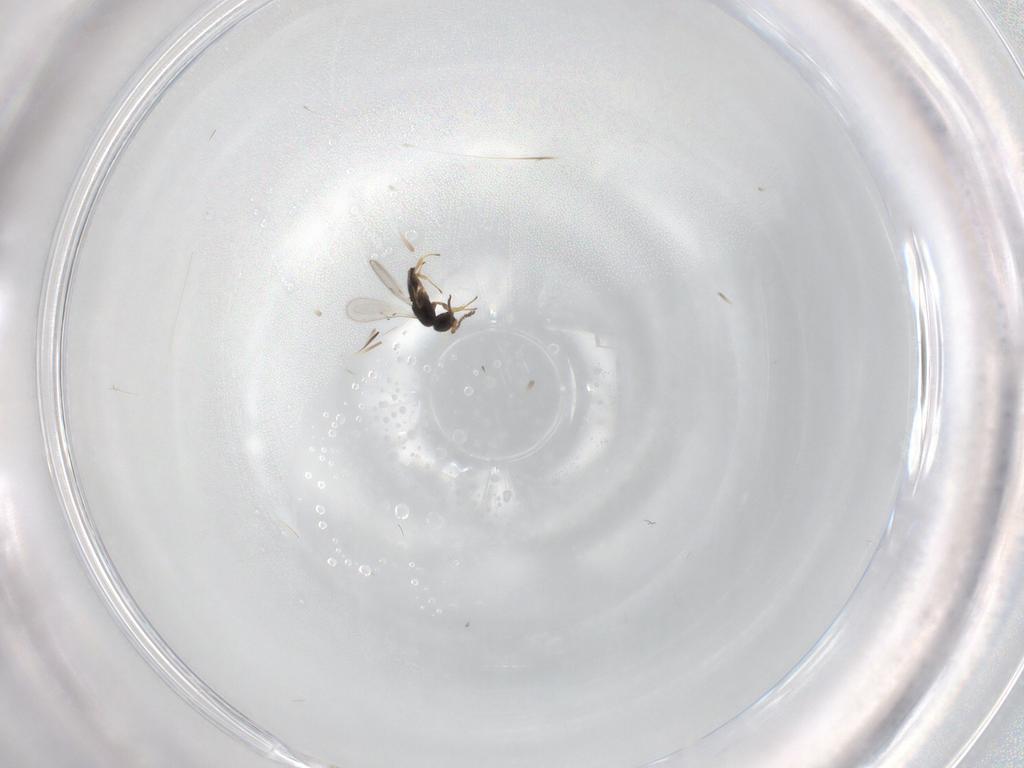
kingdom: Animalia
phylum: Arthropoda
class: Insecta
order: Hymenoptera
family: Scelionidae
